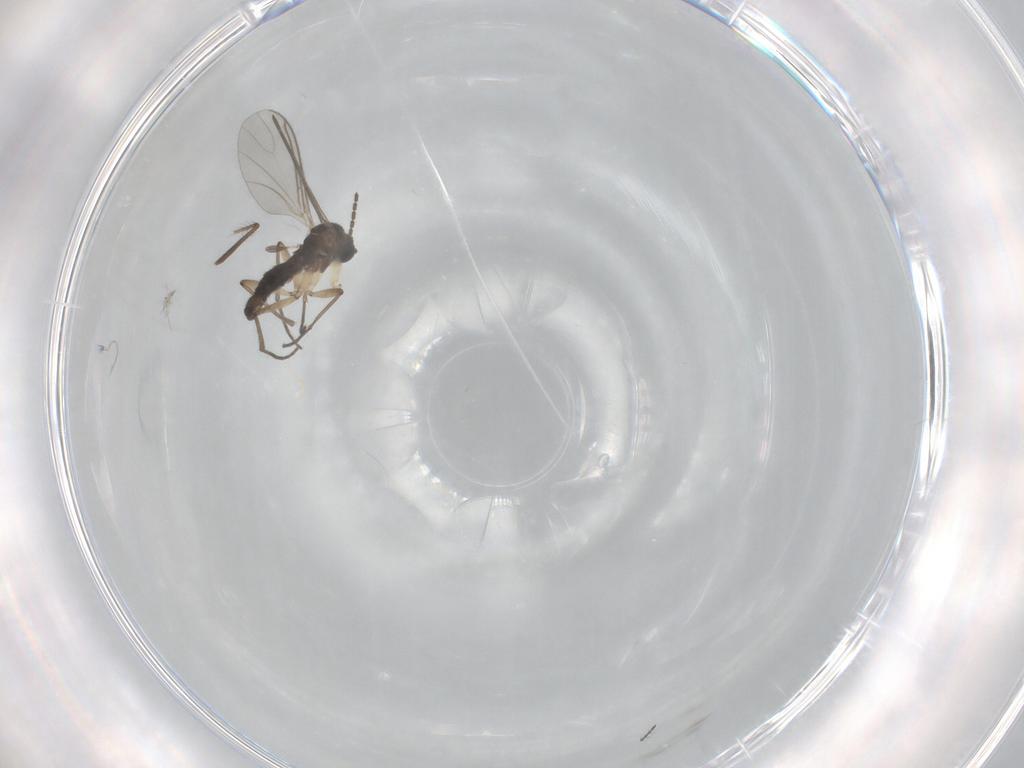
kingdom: Animalia
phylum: Arthropoda
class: Insecta
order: Diptera
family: Sciaridae
